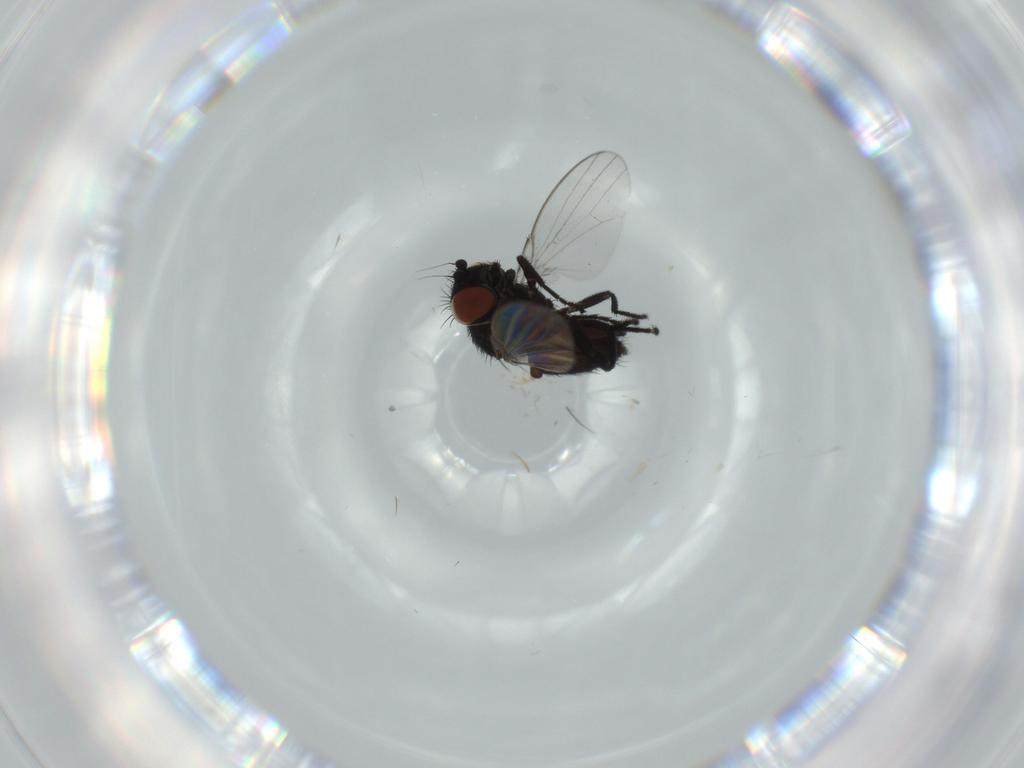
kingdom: Animalia
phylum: Arthropoda
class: Insecta
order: Diptera
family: Milichiidae
